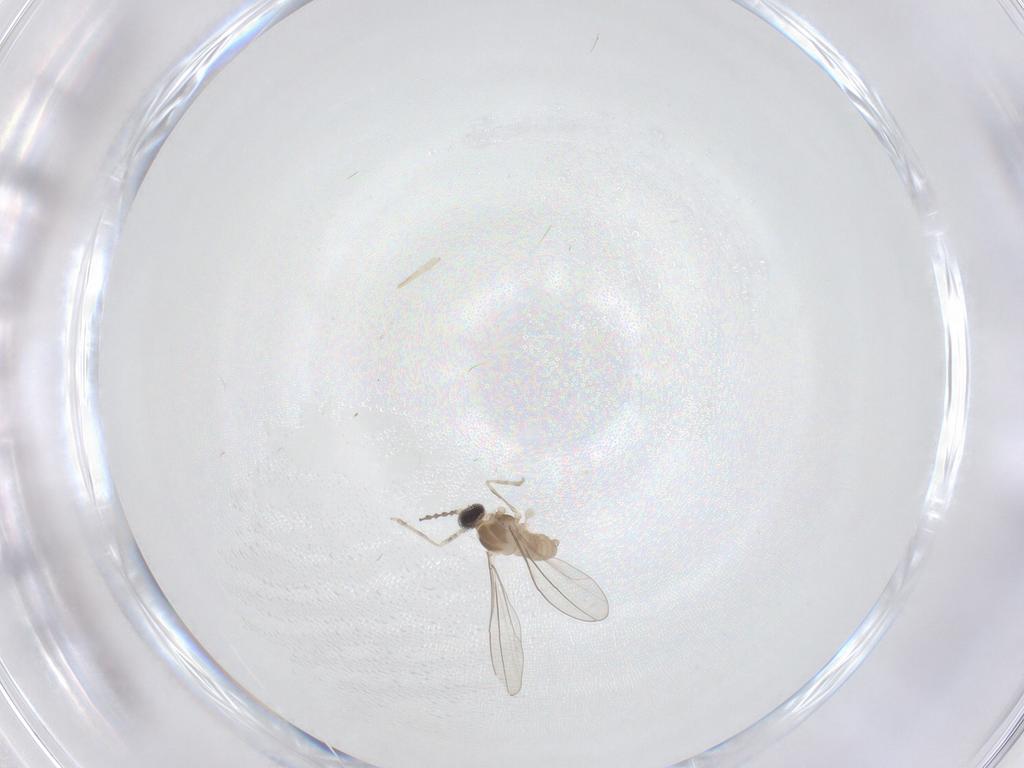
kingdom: Animalia
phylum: Arthropoda
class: Insecta
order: Diptera
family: Cecidomyiidae
